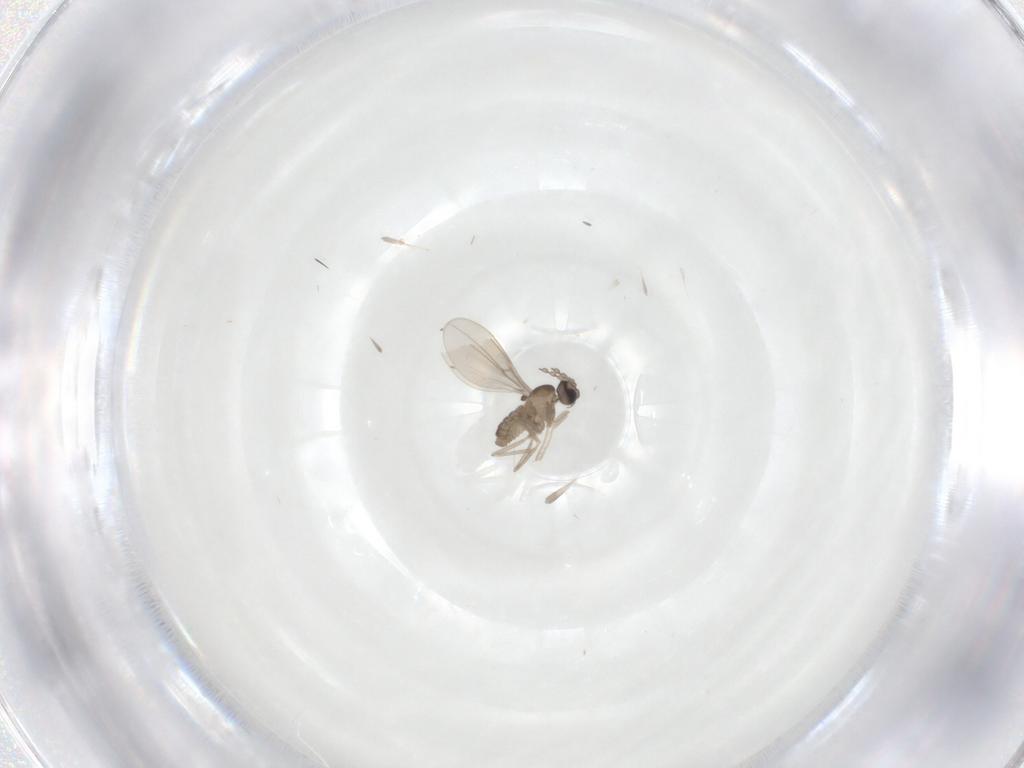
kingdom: Animalia
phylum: Arthropoda
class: Insecta
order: Diptera
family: Cecidomyiidae
